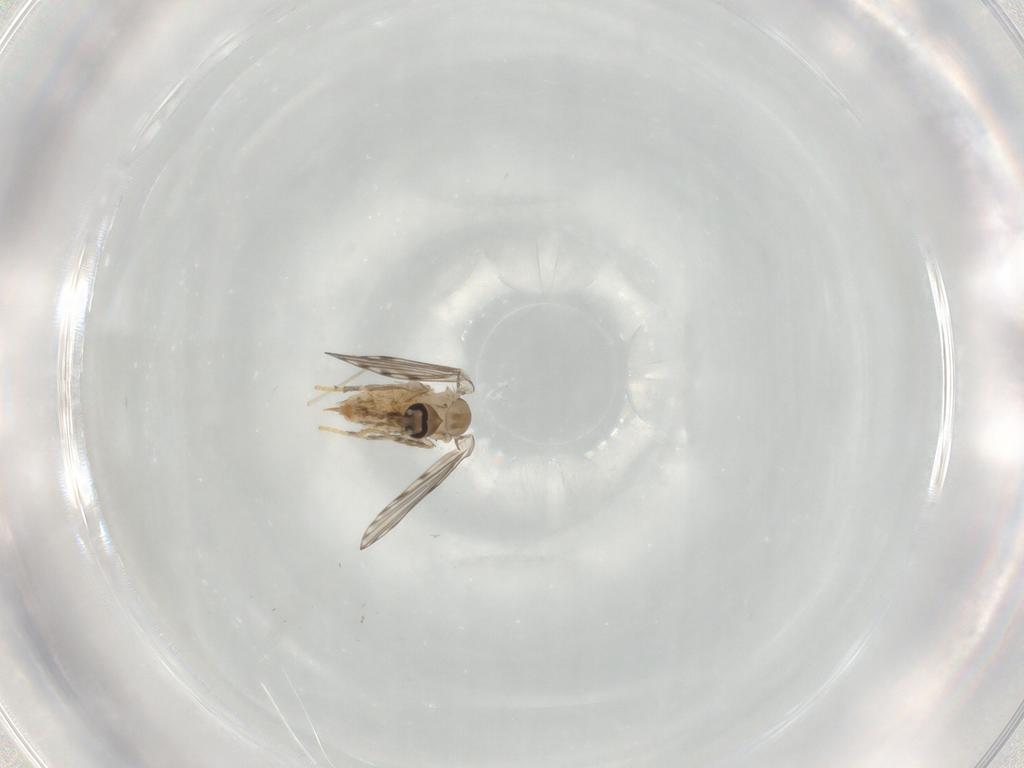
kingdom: Animalia
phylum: Arthropoda
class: Insecta
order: Diptera
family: Psychodidae
